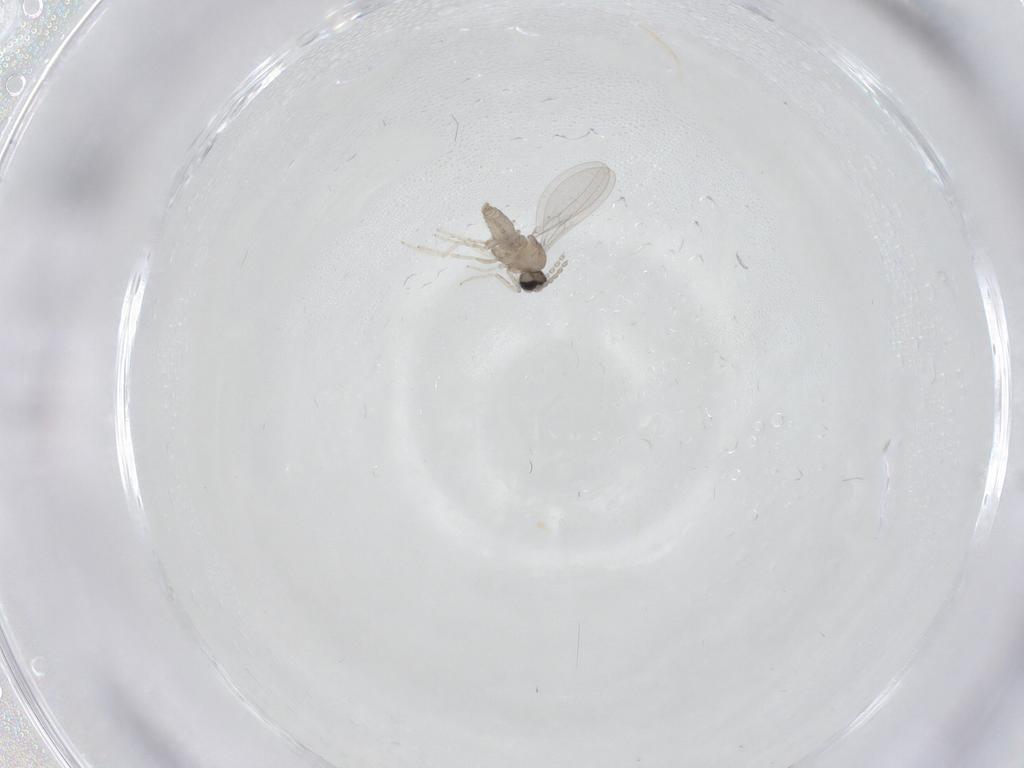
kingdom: Animalia
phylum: Arthropoda
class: Insecta
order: Diptera
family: Cecidomyiidae
